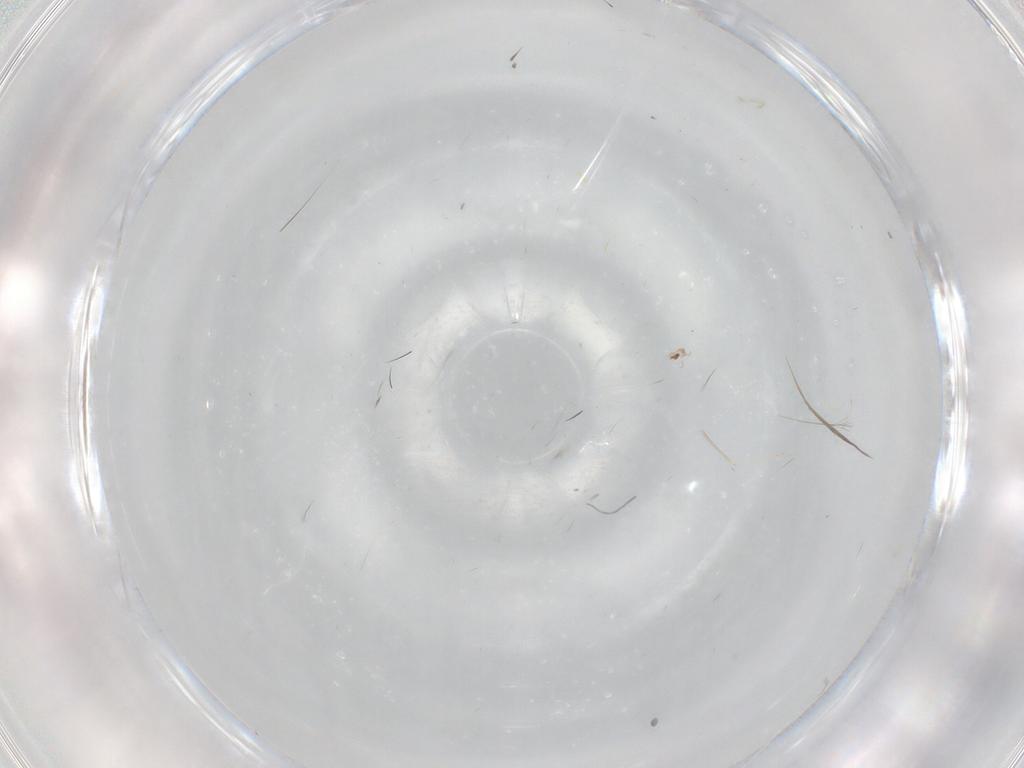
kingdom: Animalia
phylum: Arthropoda
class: Insecta
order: Diptera
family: Cecidomyiidae
